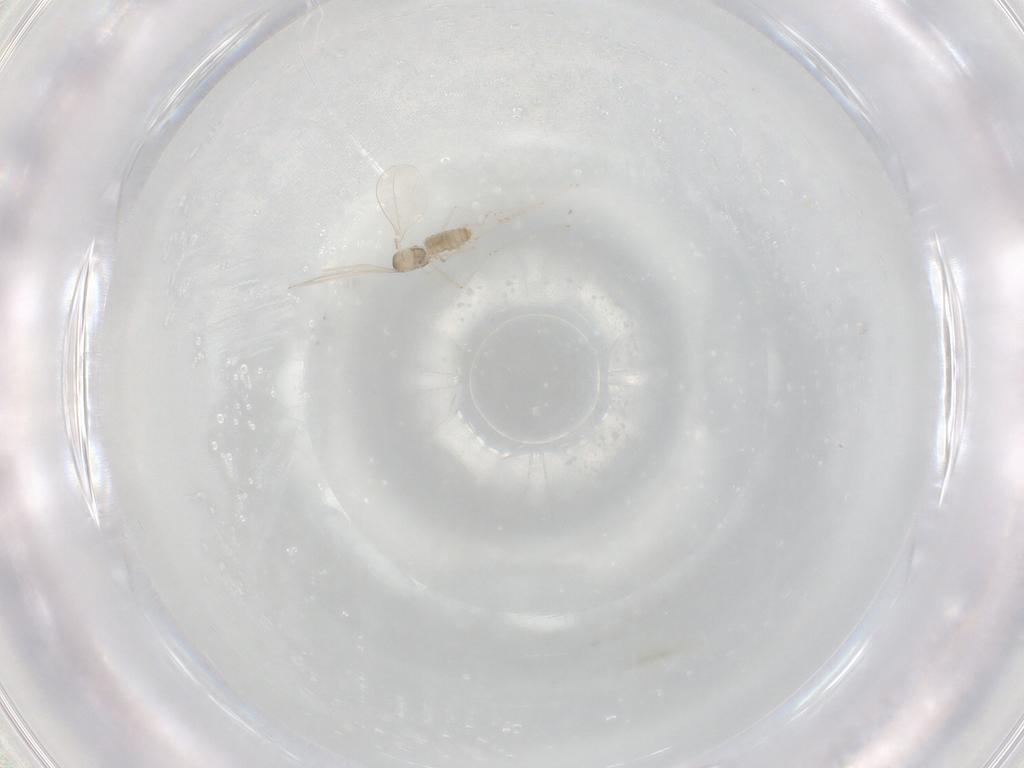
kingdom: Animalia
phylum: Arthropoda
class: Insecta
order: Diptera
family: Cecidomyiidae
